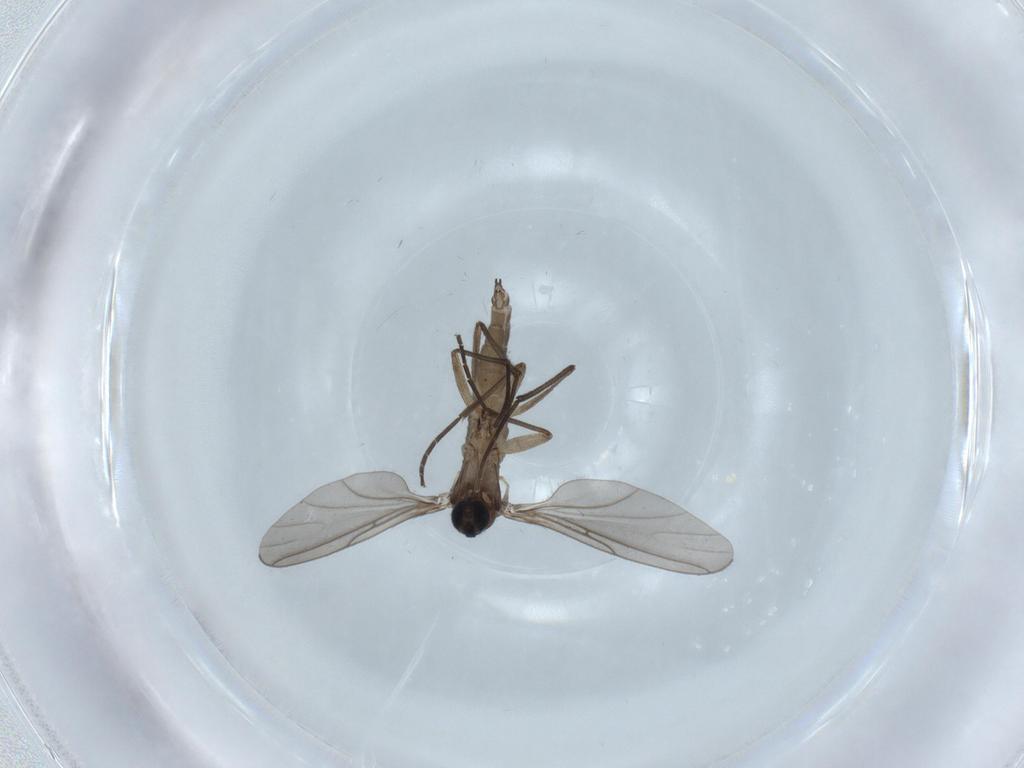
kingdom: Animalia
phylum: Arthropoda
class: Insecta
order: Diptera
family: Sciaridae
